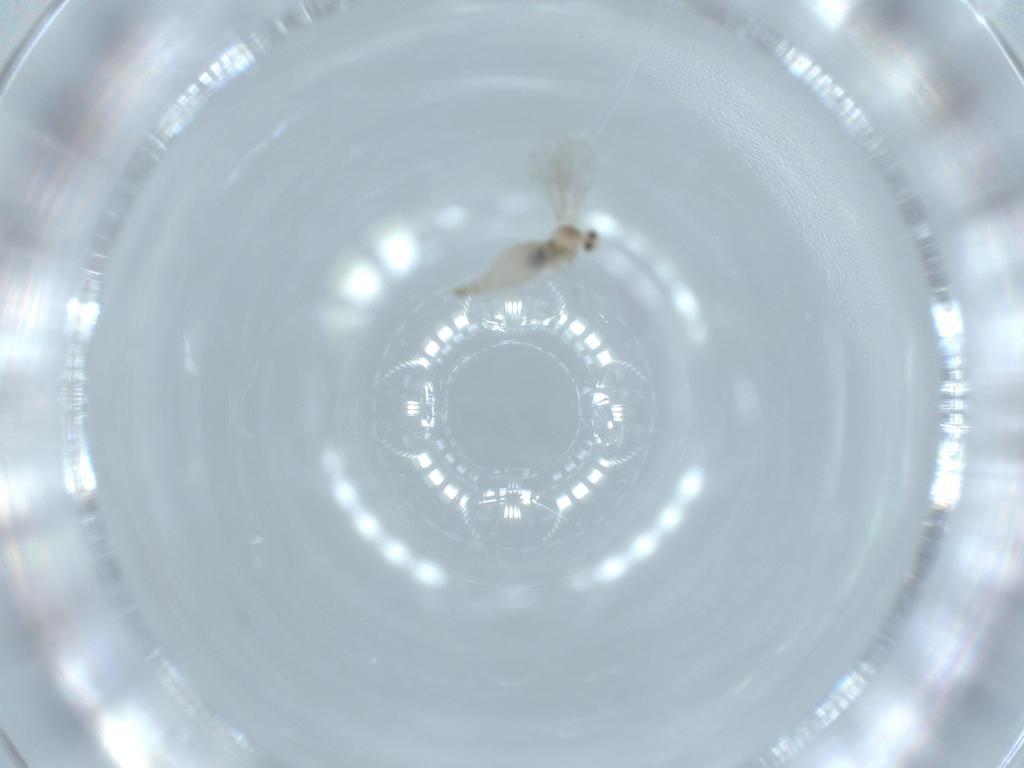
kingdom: Animalia
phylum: Arthropoda
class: Insecta
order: Diptera
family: Cecidomyiidae
